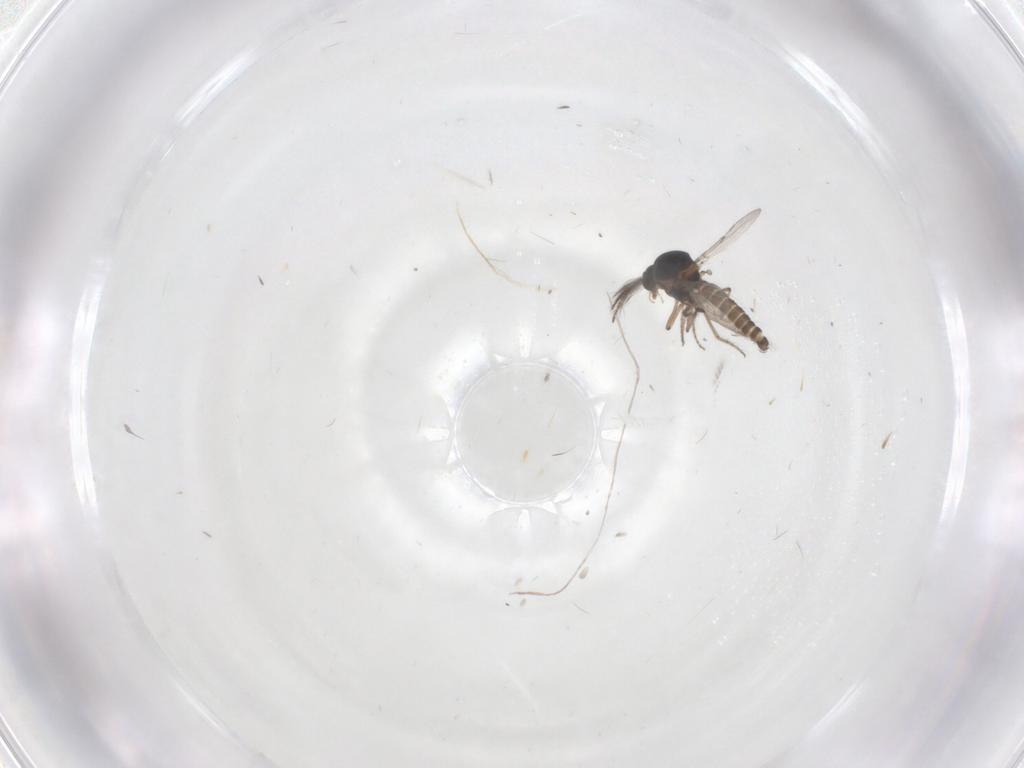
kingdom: Animalia
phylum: Arthropoda
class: Insecta
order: Diptera
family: Ceratopogonidae
